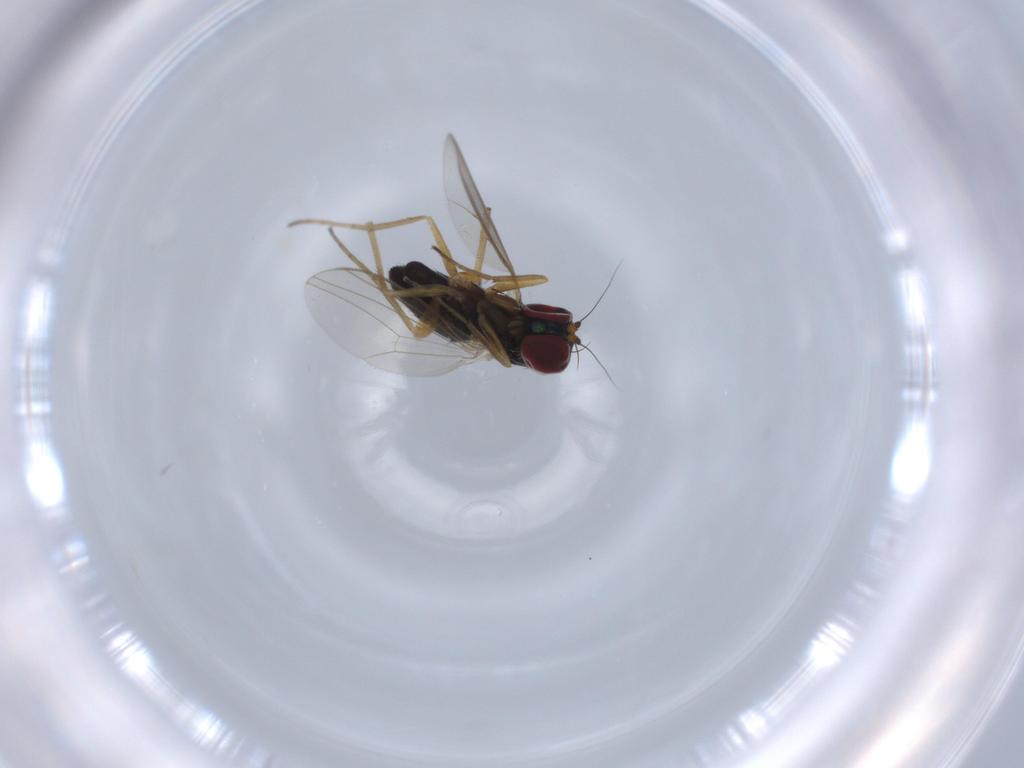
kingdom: Animalia
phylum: Arthropoda
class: Insecta
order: Diptera
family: Dolichopodidae
